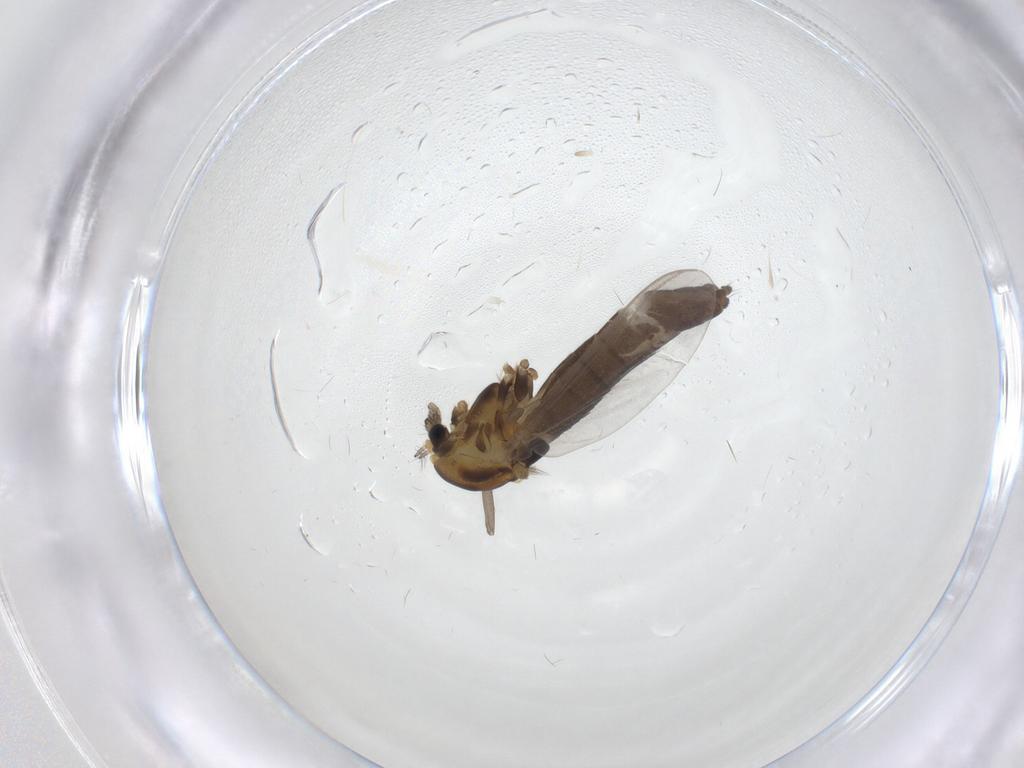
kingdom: Animalia
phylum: Arthropoda
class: Insecta
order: Diptera
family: Chironomidae
